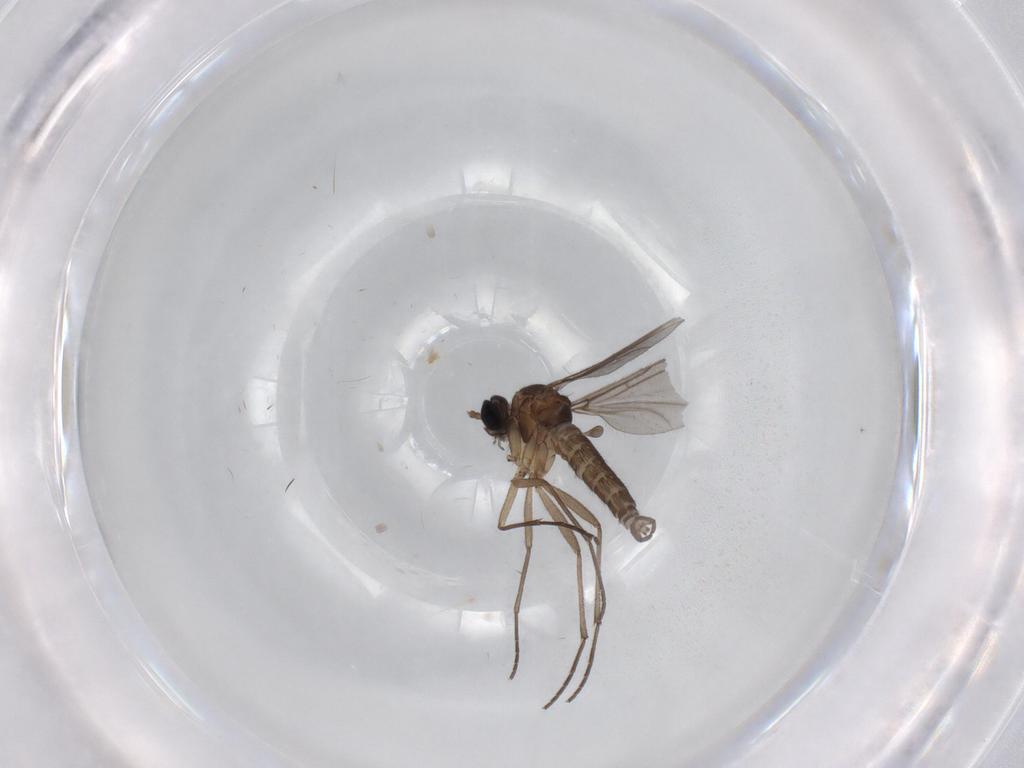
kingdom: Animalia
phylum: Arthropoda
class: Insecta
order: Diptera
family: Sciaridae
